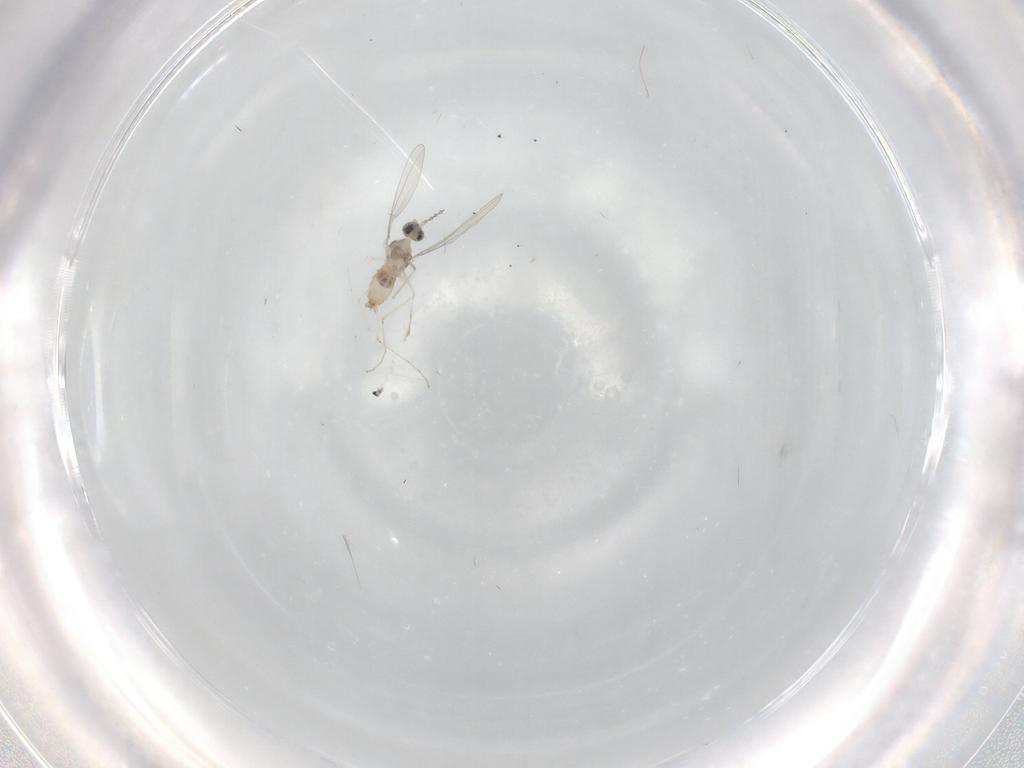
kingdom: Animalia
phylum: Arthropoda
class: Insecta
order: Diptera
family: Cecidomyiidae
